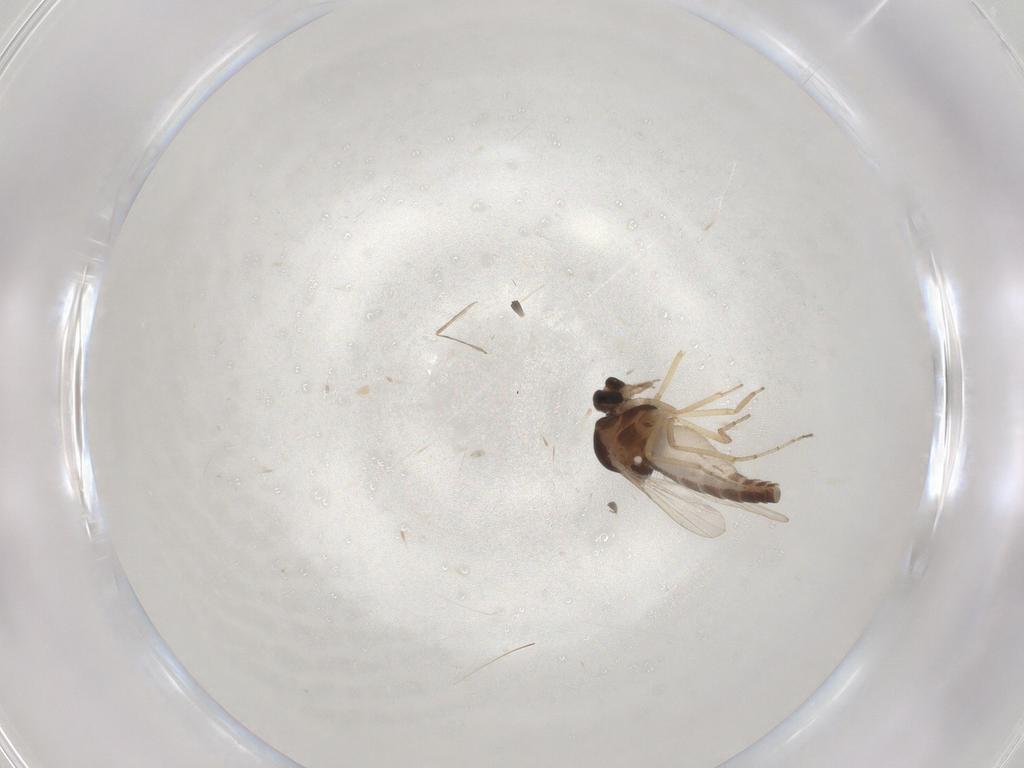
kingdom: Animalia
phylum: Arthropoda
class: Insecta
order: Diptera
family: Ceratopogonidae
